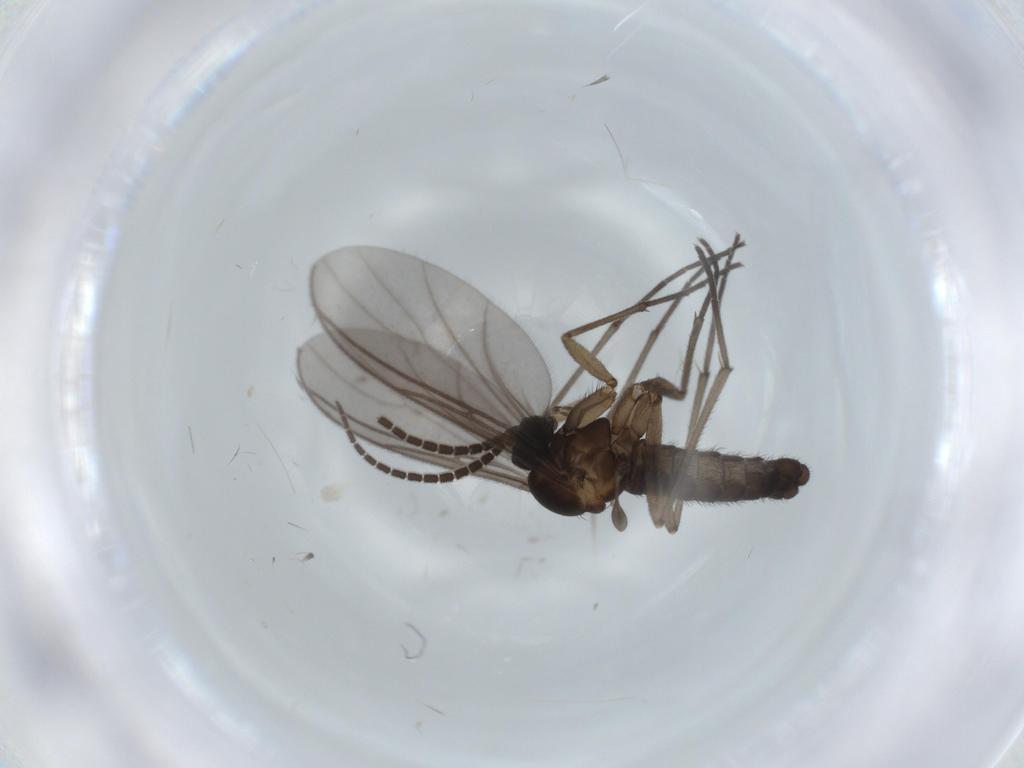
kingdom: Animalia
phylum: Arthropoda
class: Insecta
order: Diptera
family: Sciaridae
